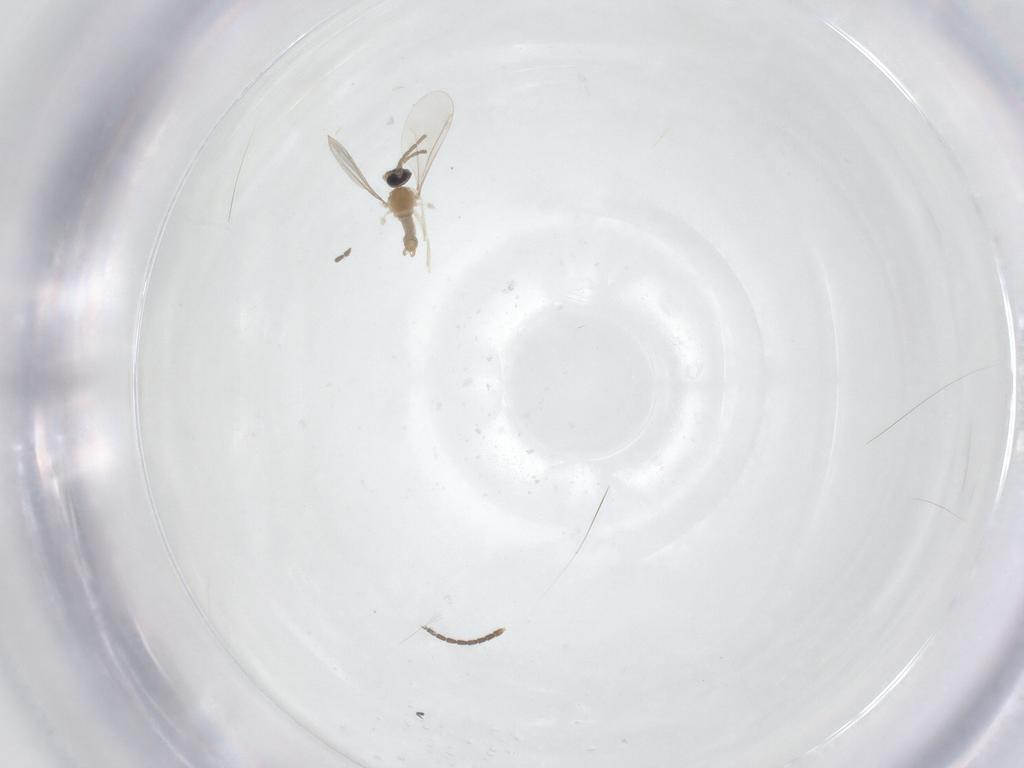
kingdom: Animalia
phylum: Arthropoda
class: Insecta
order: Diptera
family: Sciaridae
